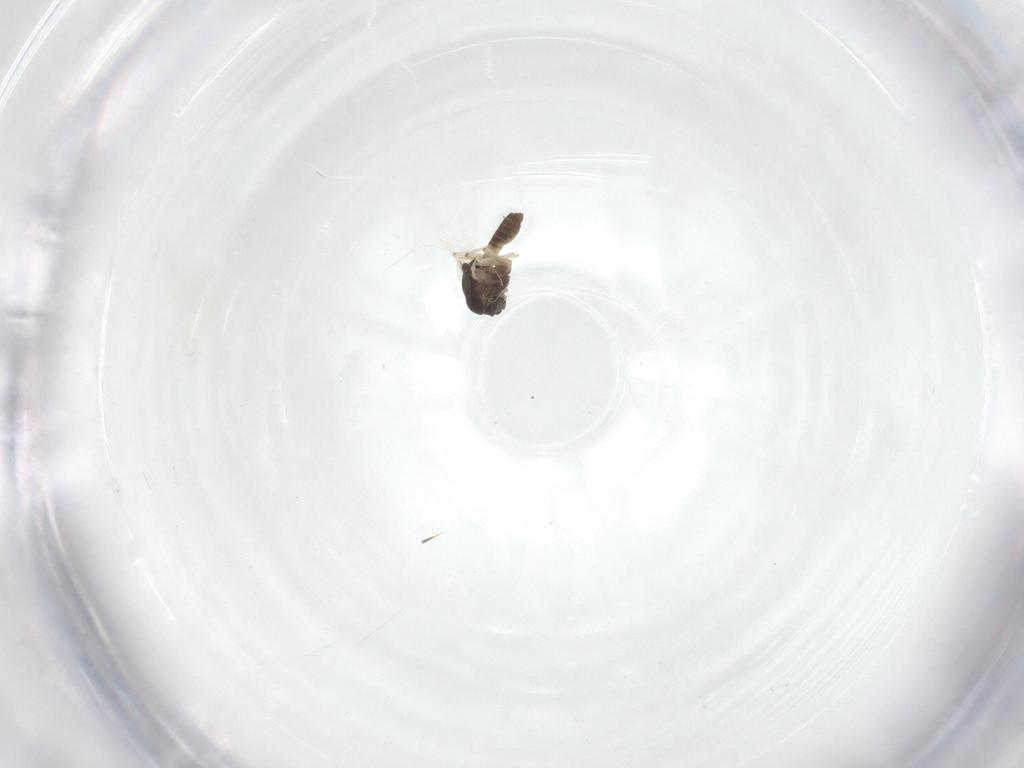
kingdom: Animalia
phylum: Arthropoda
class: Insecta
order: Diptera
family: Chironomidae
